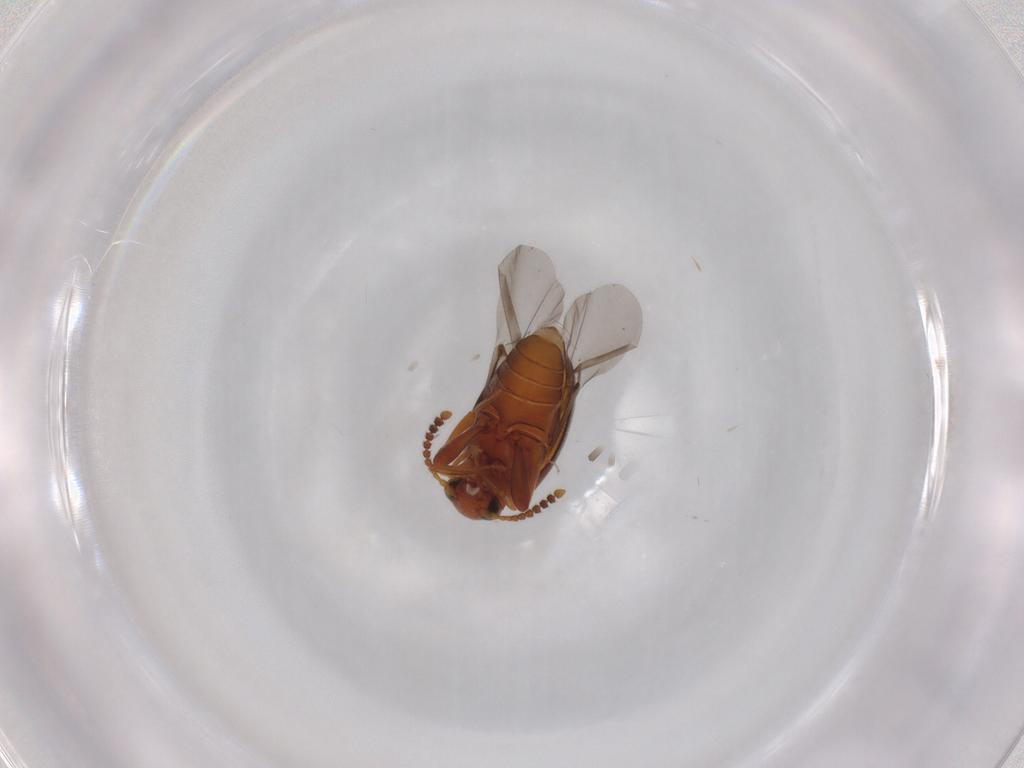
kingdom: Animalia
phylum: Arthropoda
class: Insecta
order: Coleoptera
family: Aderidae
